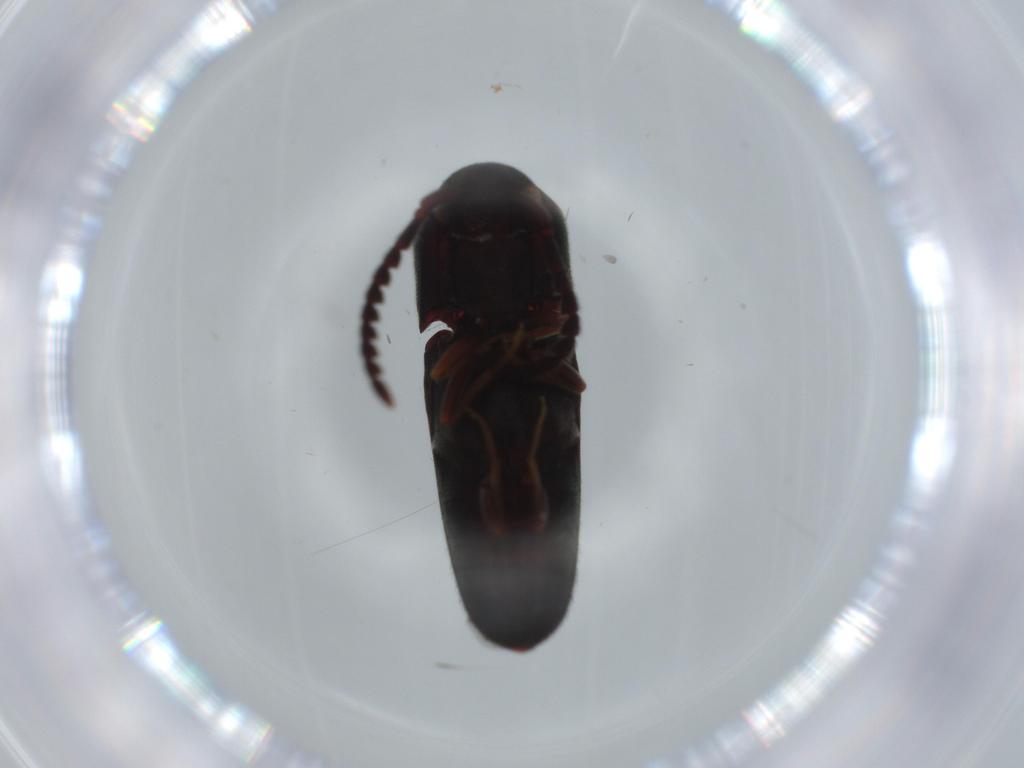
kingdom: Animalia
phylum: Arthropoda
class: Insecta
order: Coleoptera
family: Eucnemidae
